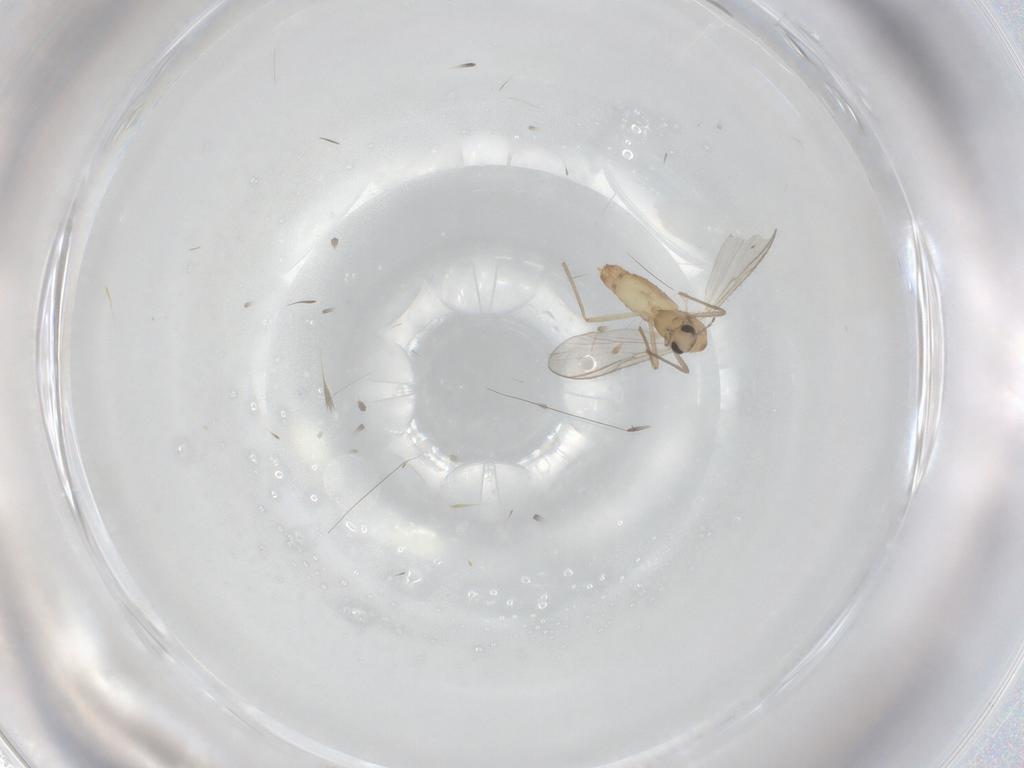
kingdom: Animalia
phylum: Arthropoda
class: Insecta
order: Diptera
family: Chironomidae
